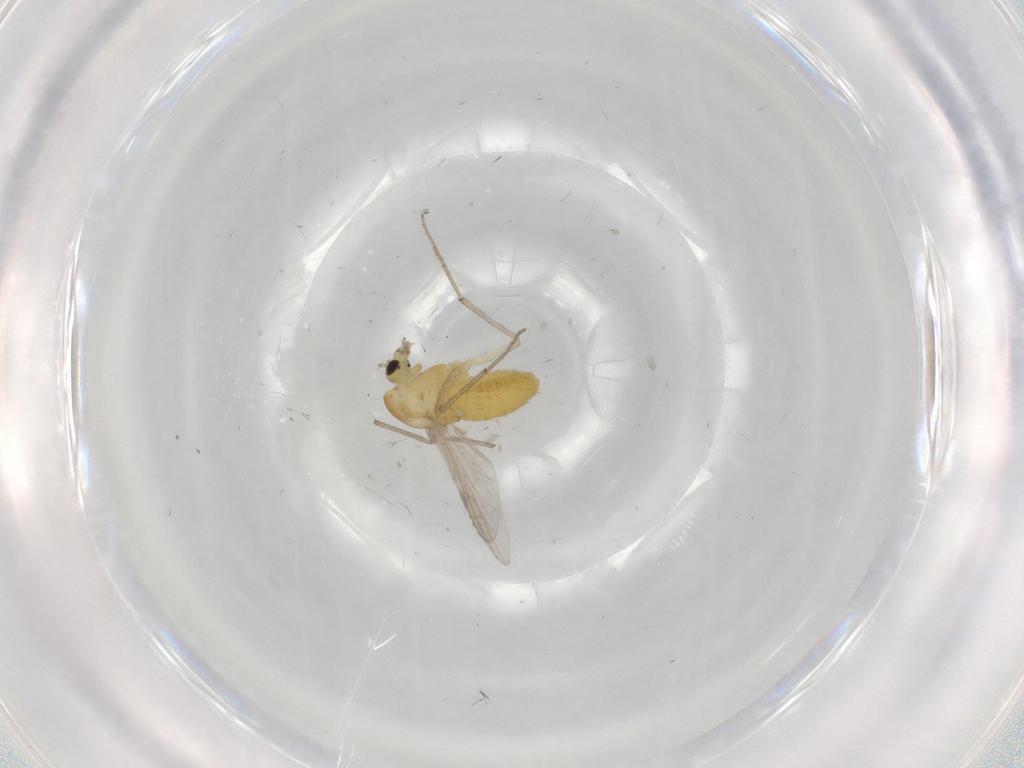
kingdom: Animalia
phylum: Arthropoda
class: Insecta
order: Diptera
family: Chironomidae
